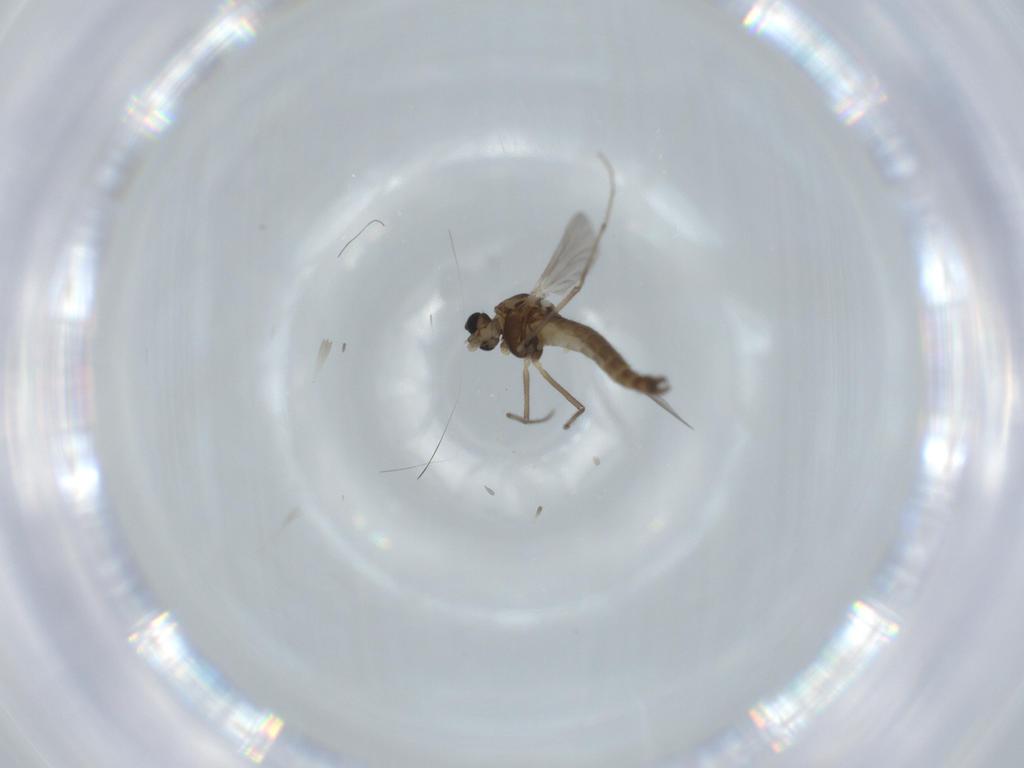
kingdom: Animalia
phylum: Arthropoda
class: Insecta
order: Diptera
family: Chironomidae
